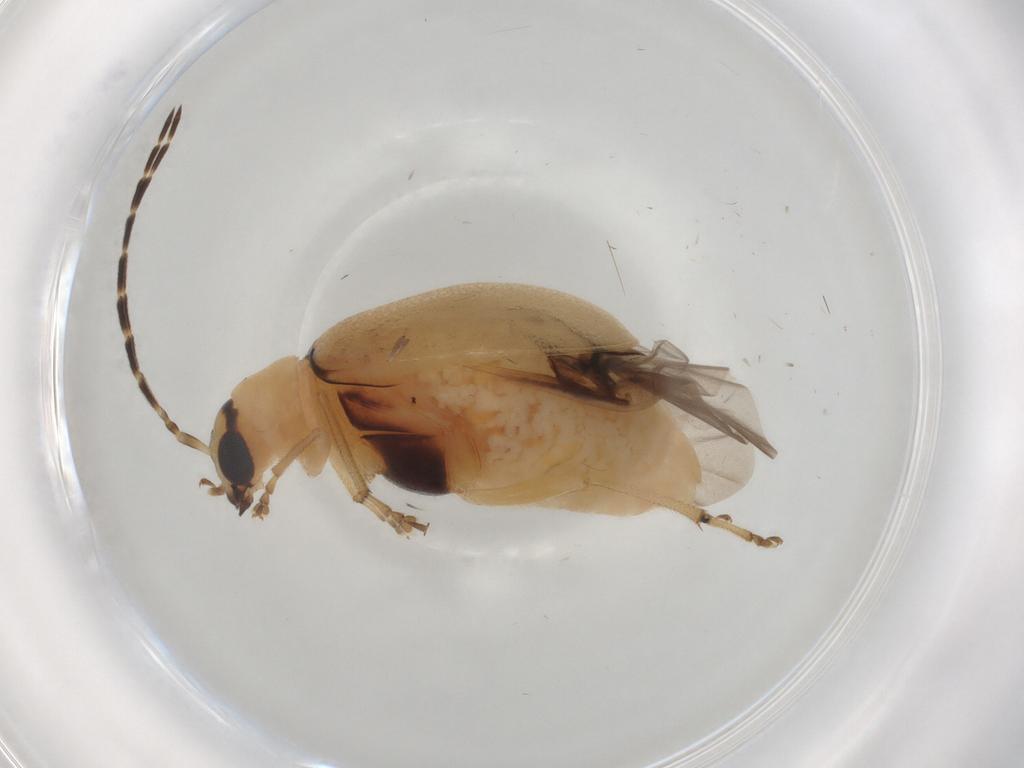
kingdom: Animalia
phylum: Arthropoda
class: Insecta
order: Coleoptera
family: Chrysomelidae
